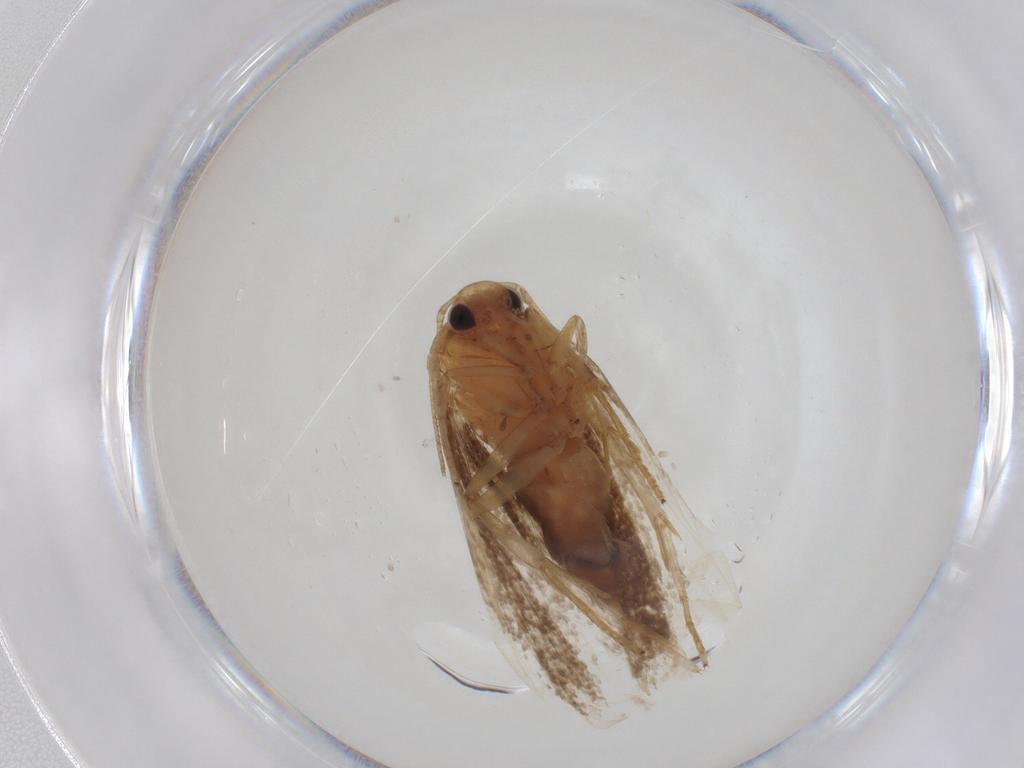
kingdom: Animalia
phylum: Arthropoda
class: Insecta
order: Lepidoptera
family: Depressariidae
